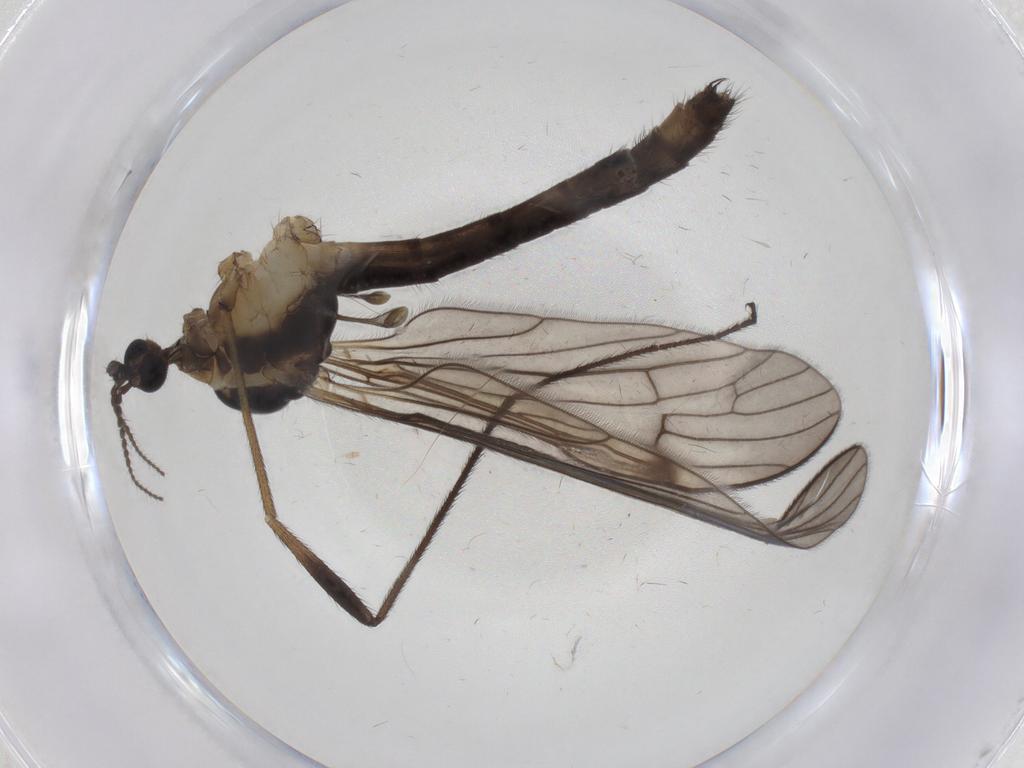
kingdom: Animalia
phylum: Arthropoda
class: Insecta
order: Diptera
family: Limoniidae
